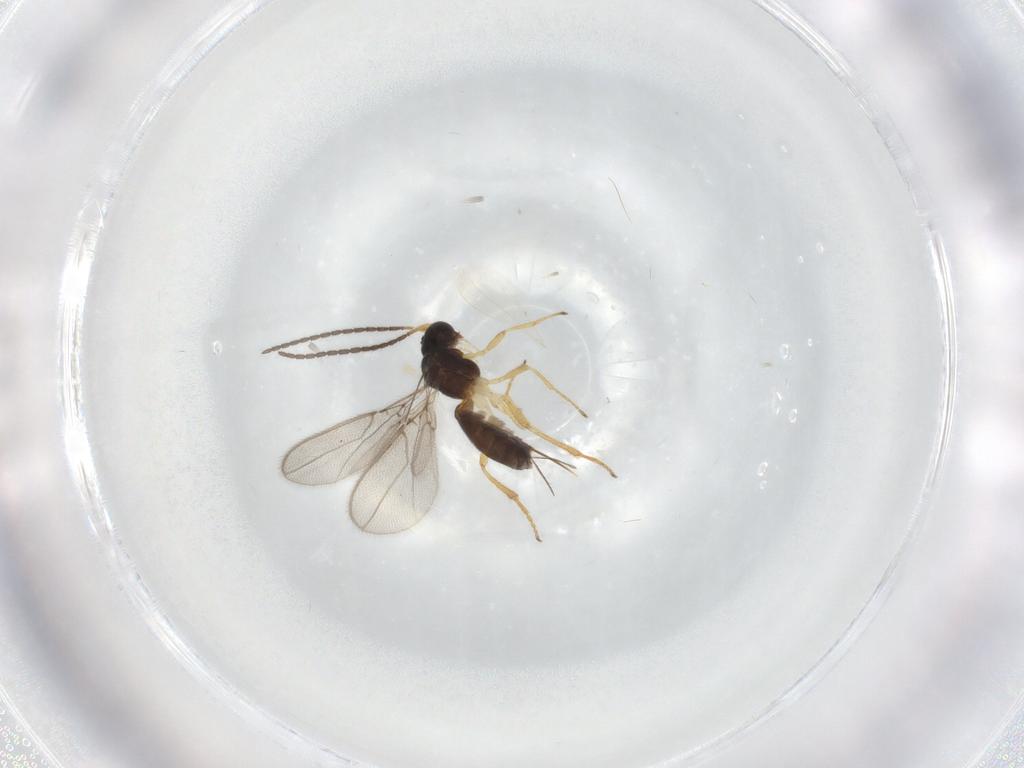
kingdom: Animalia
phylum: Arthropoda
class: Insecta
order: Hymenoptera
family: Braconidae
